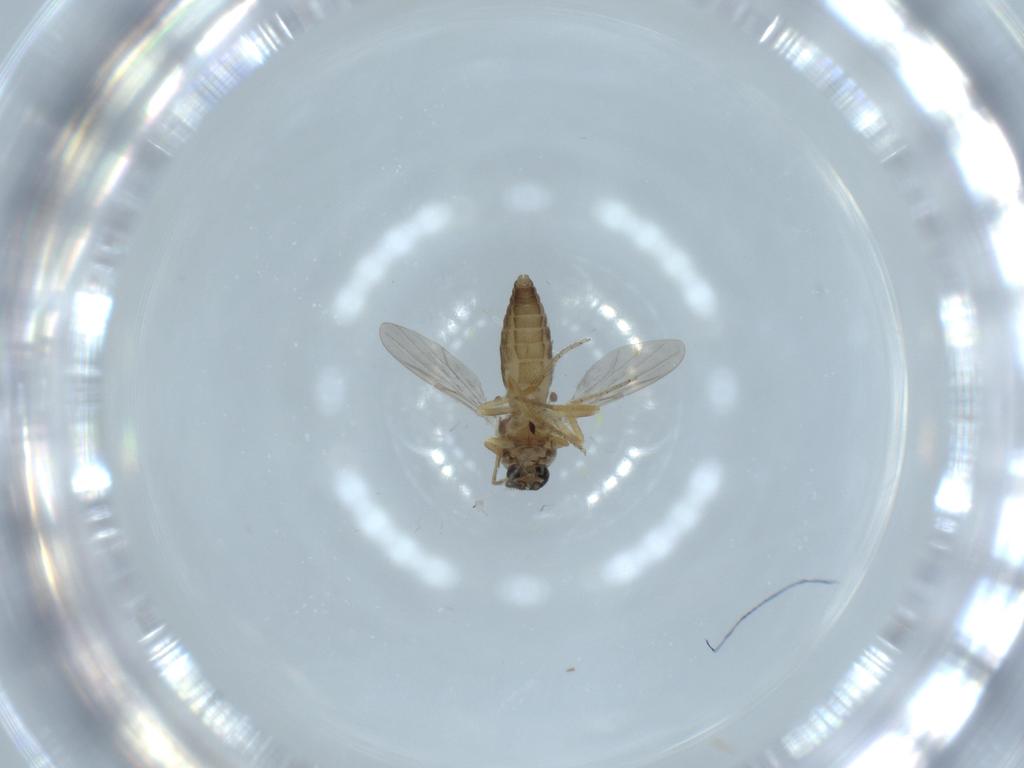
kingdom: Animalia
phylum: Arthropoda
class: Insecta
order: Diptera
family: Ceratopogonidae
